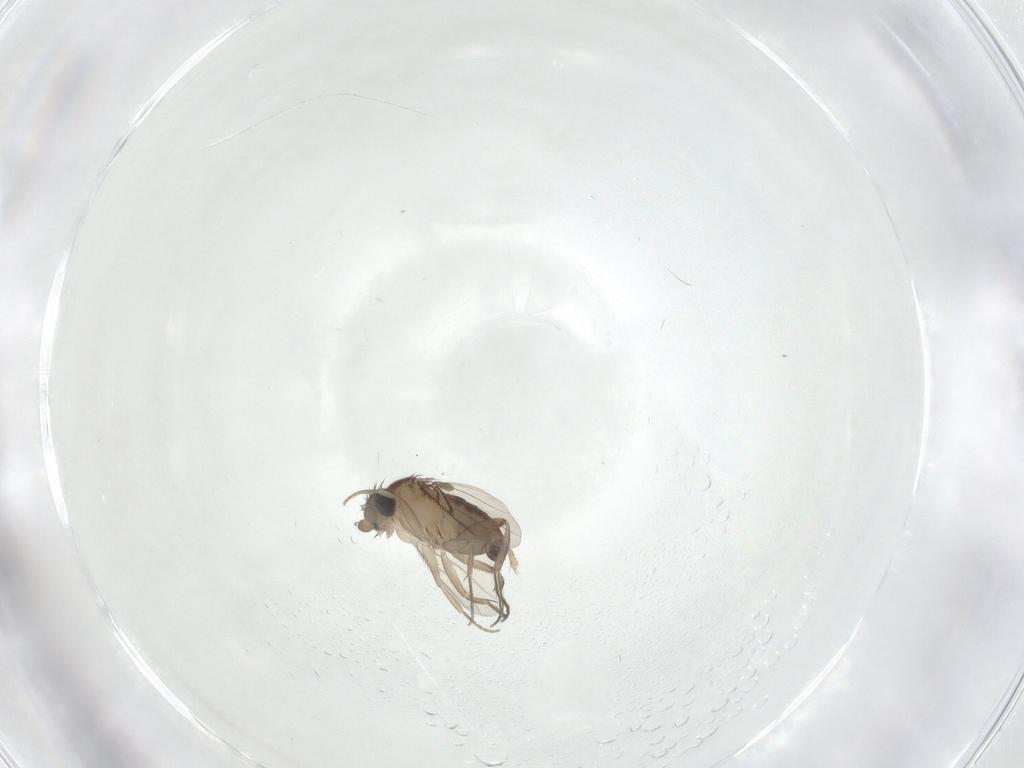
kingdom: Animalia
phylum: Arthropoda
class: Insecta
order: Diptera
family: Phoridae
